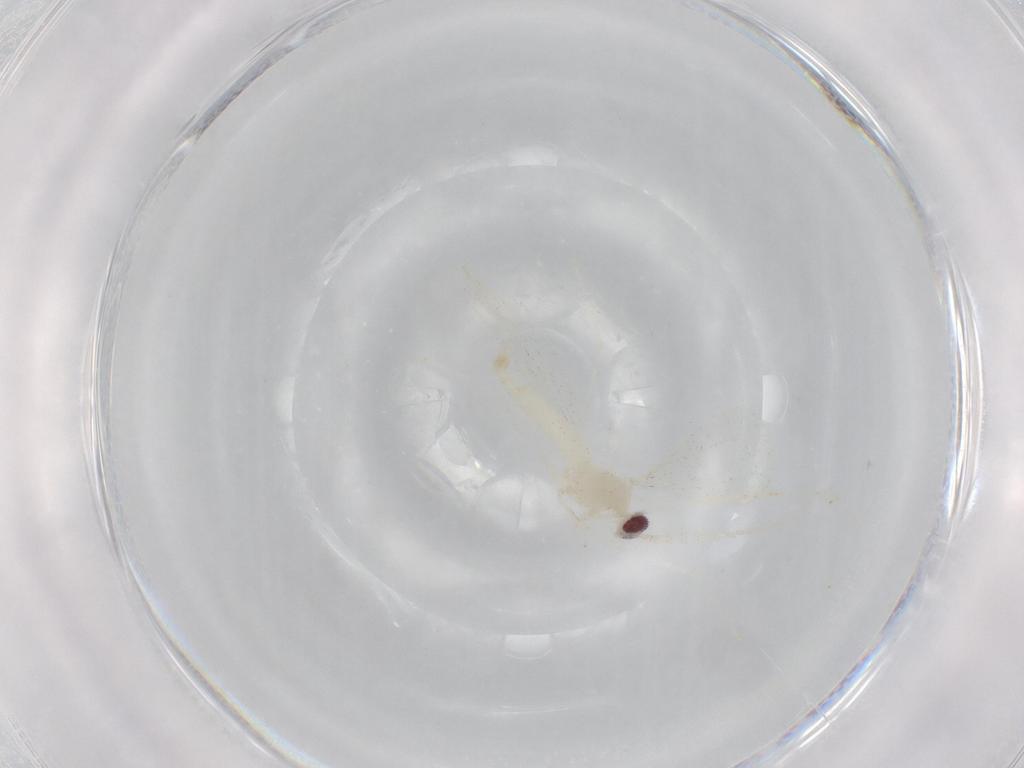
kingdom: Animalia
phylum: Arthropoda
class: Insecta
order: Diptera
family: Cecidomyiidae
